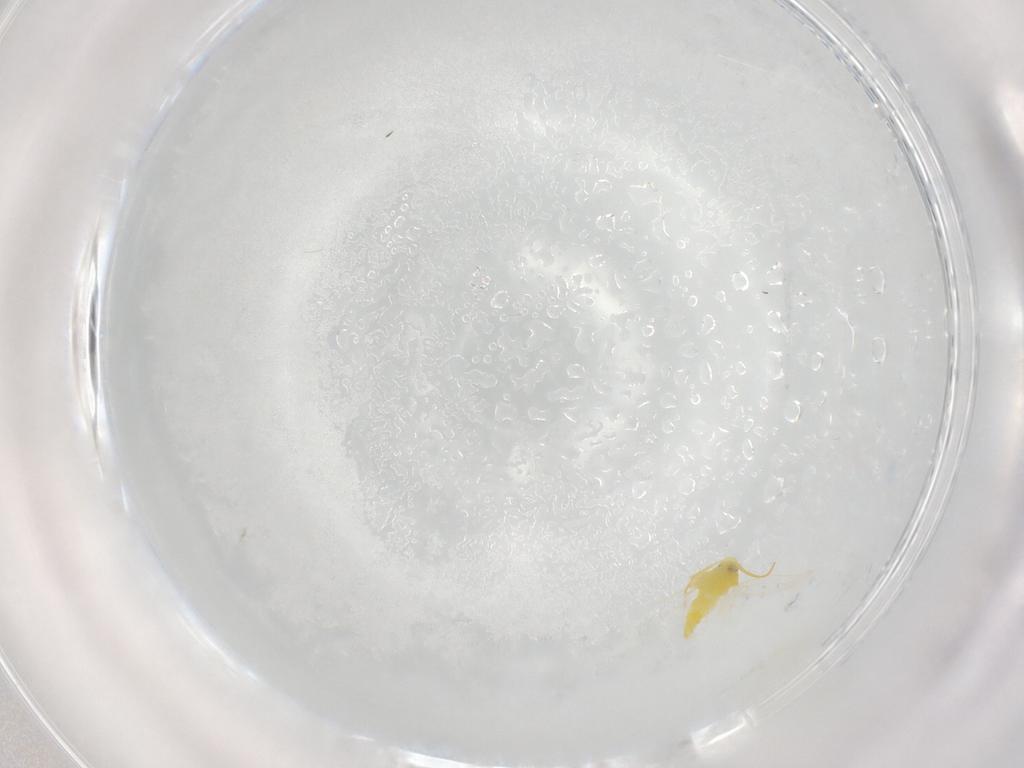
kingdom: Animalia
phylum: Arthropoda
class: Insecta
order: Hemiptera
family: Aleyrodidae
